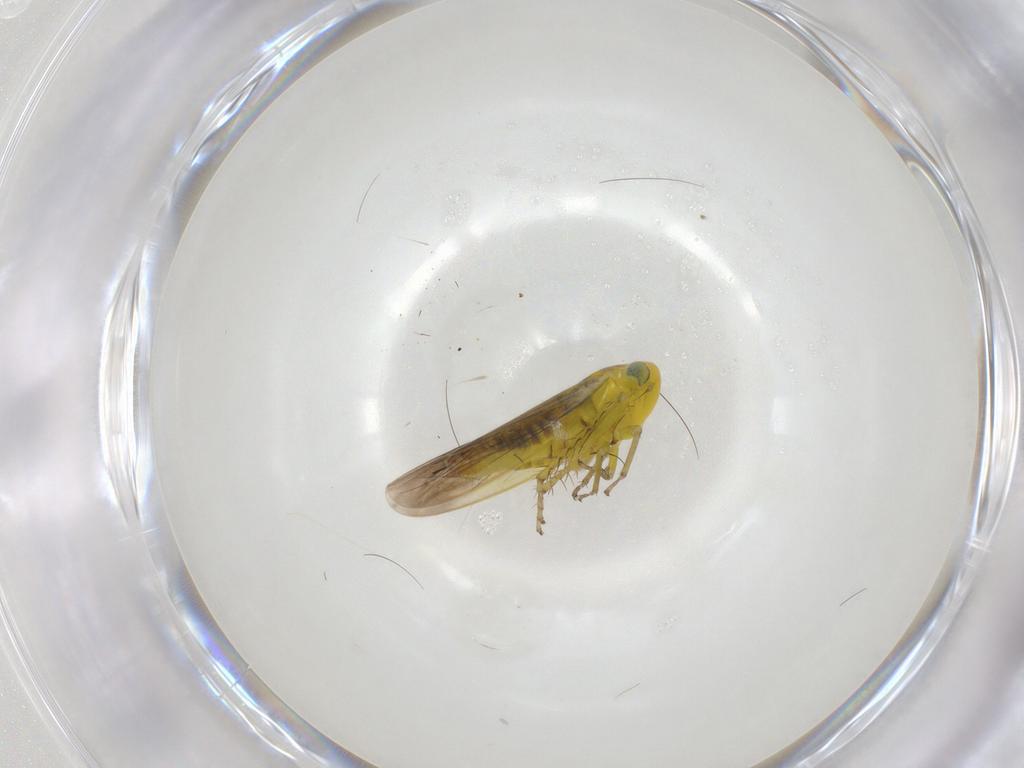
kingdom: Animalia
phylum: Arthropoda
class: Insecta
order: Hemiptera
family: Cicadellidae
